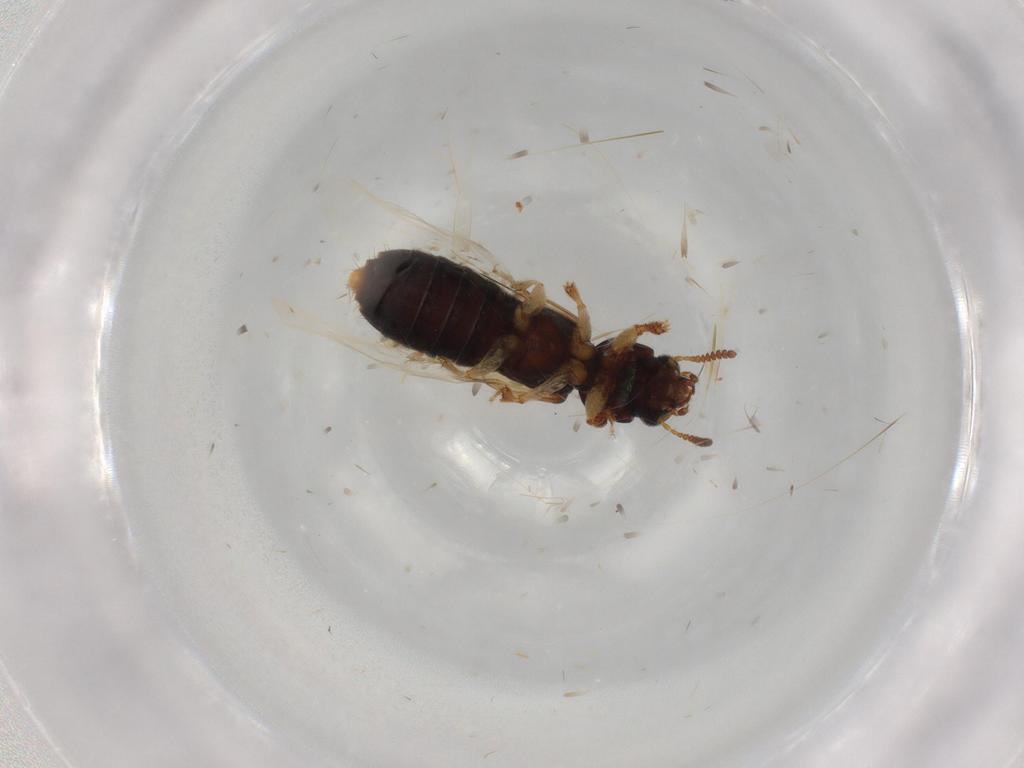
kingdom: Animalia
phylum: Arthropoda
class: Insecta
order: Coleoptera
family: Staphylinidae
